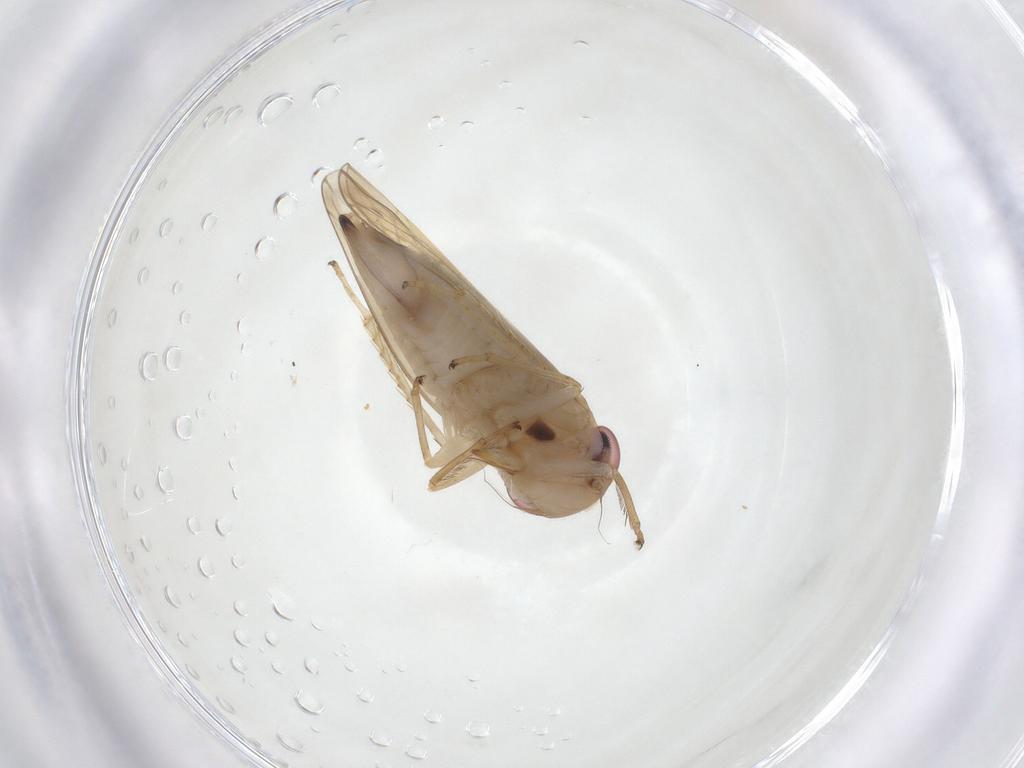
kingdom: Animalia
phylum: Arthropoda
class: Insecta
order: Hemiptera
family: Cicadellidae
